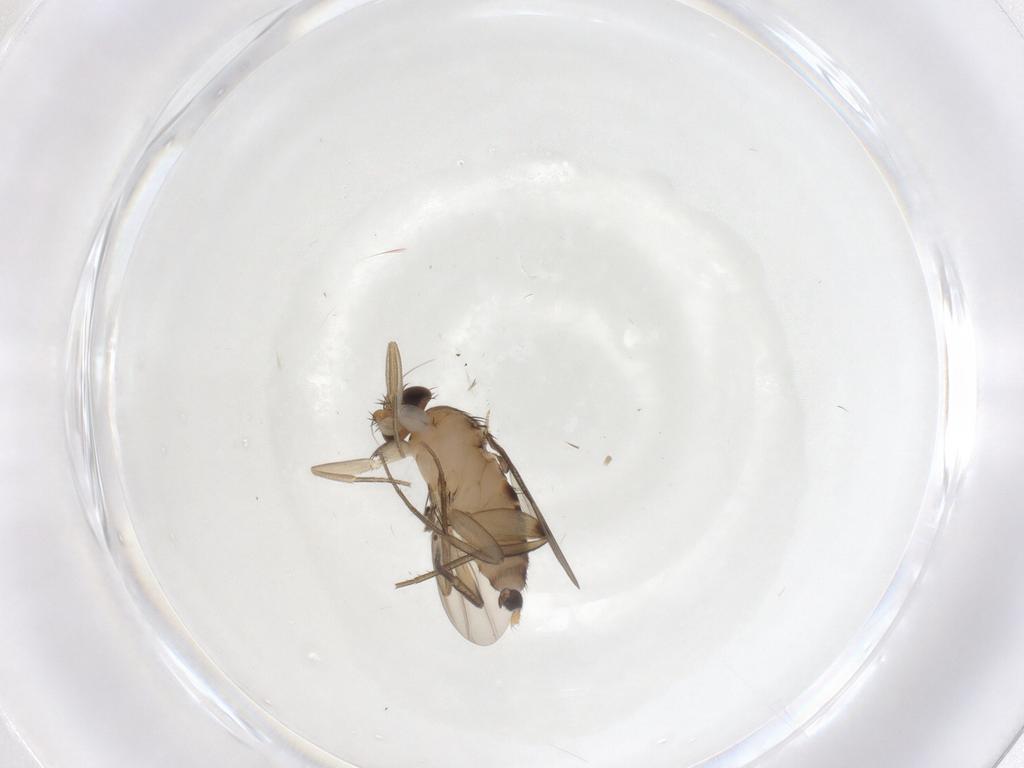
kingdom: Animalia
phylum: Arthropoda
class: Insecta
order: Diptera
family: Phoridae
